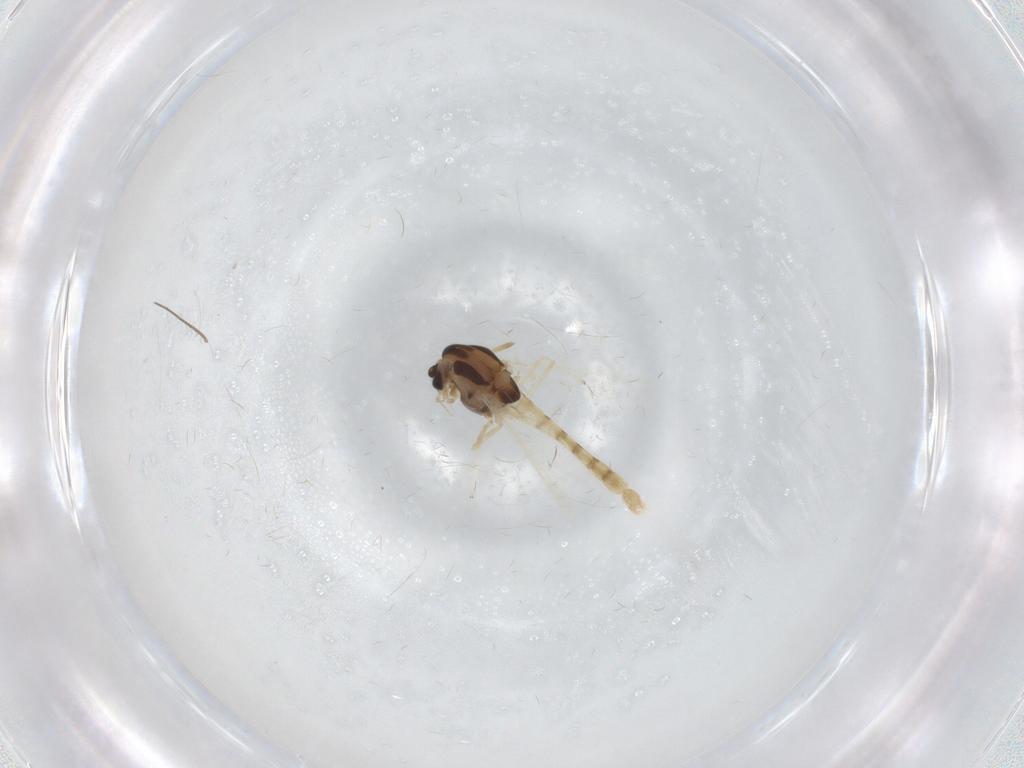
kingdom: Animalia
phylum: Arthropoda
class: Insecta
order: Diptera
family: Chironomidae
